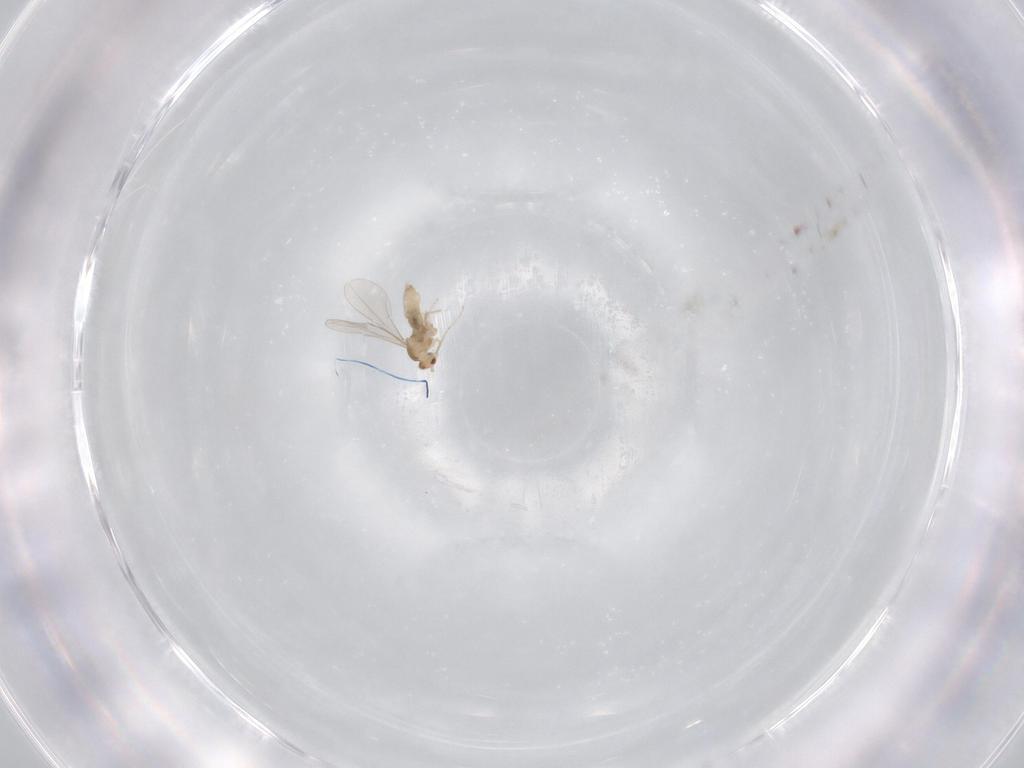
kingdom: Animalia
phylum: Arthropoda
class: Insecta
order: Diptera
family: Cecidomyiidae
